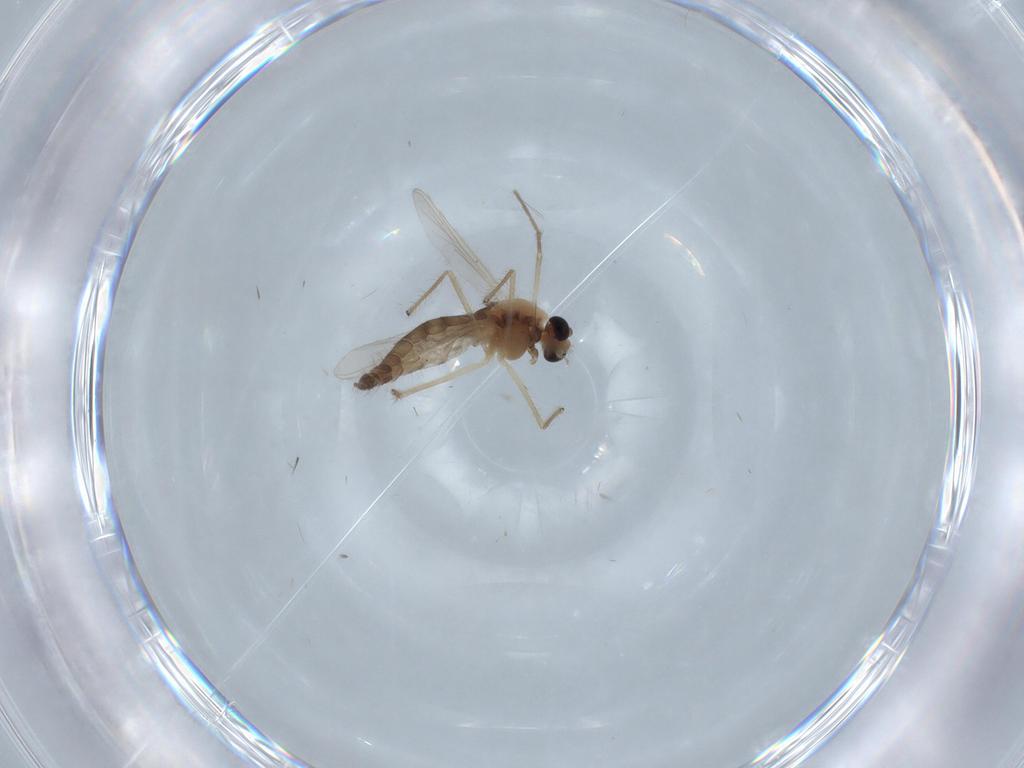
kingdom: Animalia
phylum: Arthropoda
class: Insecta
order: Diptera
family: Chironomidae
